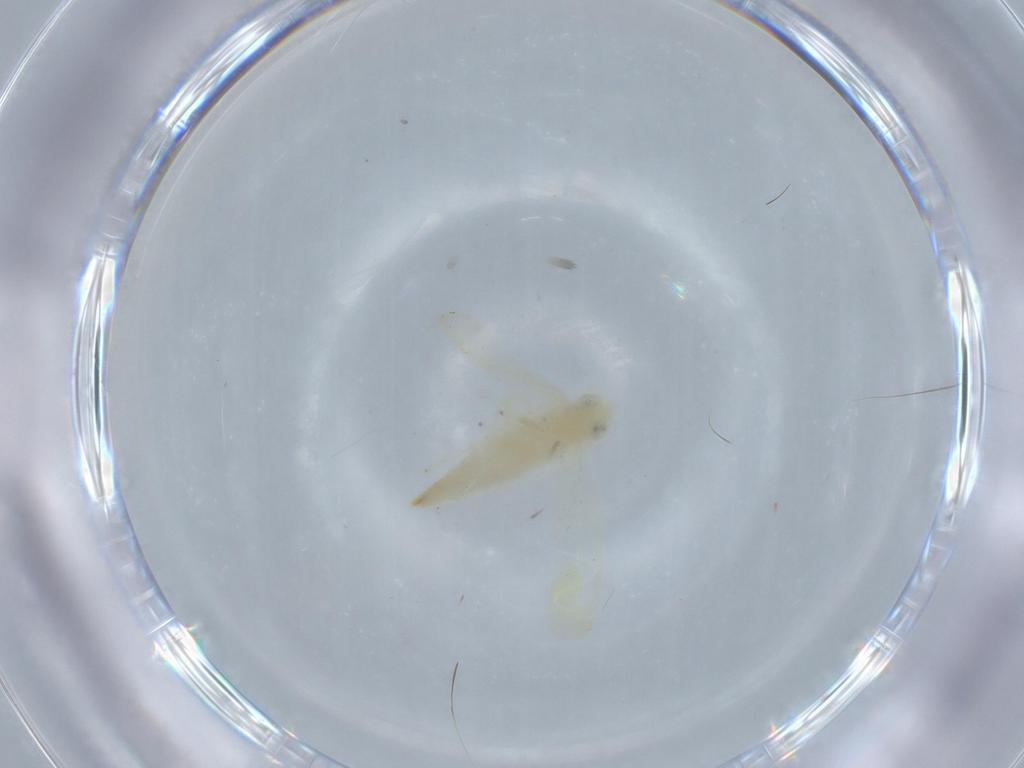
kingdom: Animalia
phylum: Arthropoda
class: Insecta
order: Hemiptera
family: Cicadellidae
